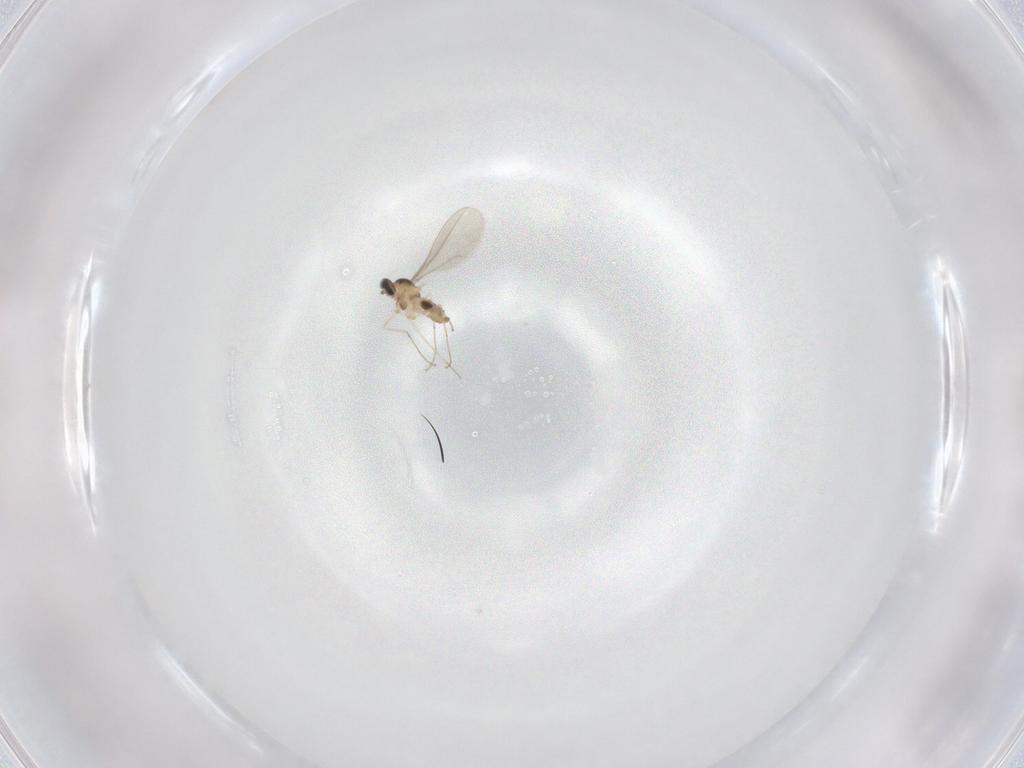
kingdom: Animalia
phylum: Arthropoda
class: Insecta
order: Diptera
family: Cecidomyiidae
